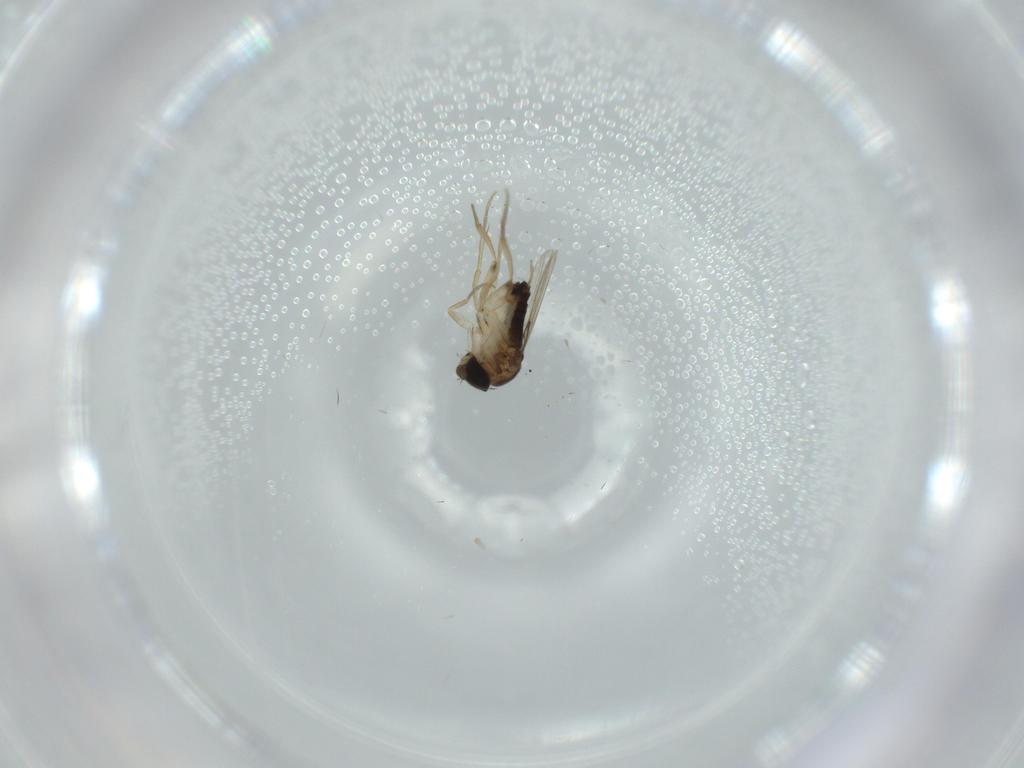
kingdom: Animalia
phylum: Arthropoda
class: Insecta
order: Diptera
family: Phoridae
